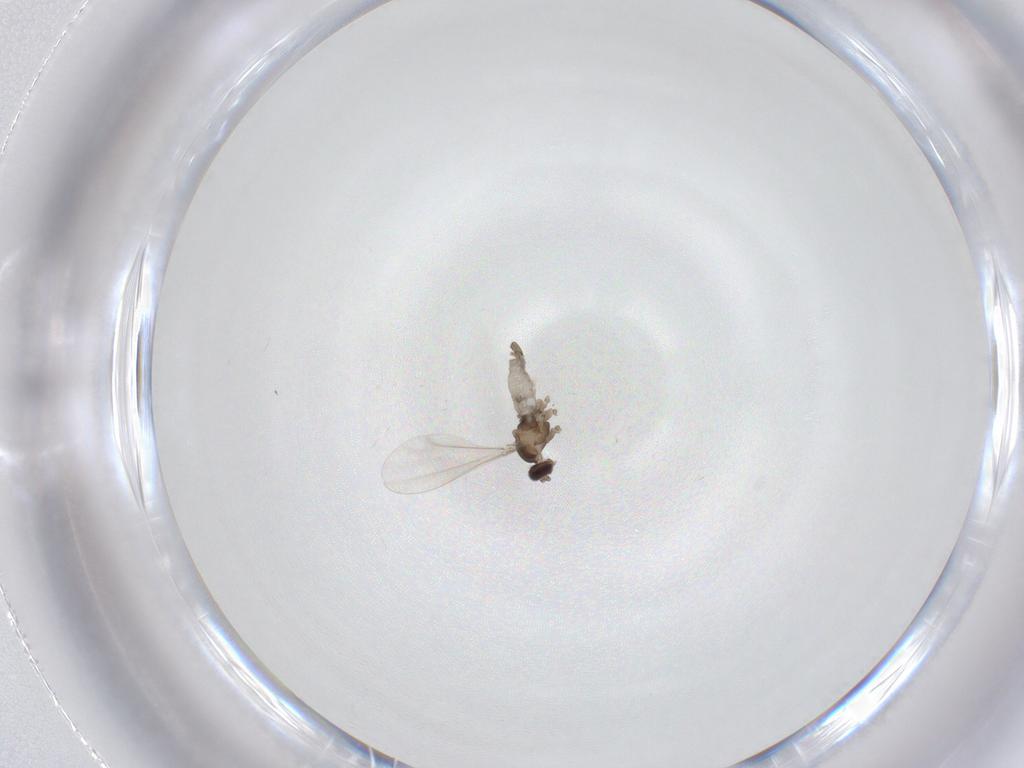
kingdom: Animalia
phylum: Arthropoda
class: Insecta
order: Diptera
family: Cecidomyiidae
